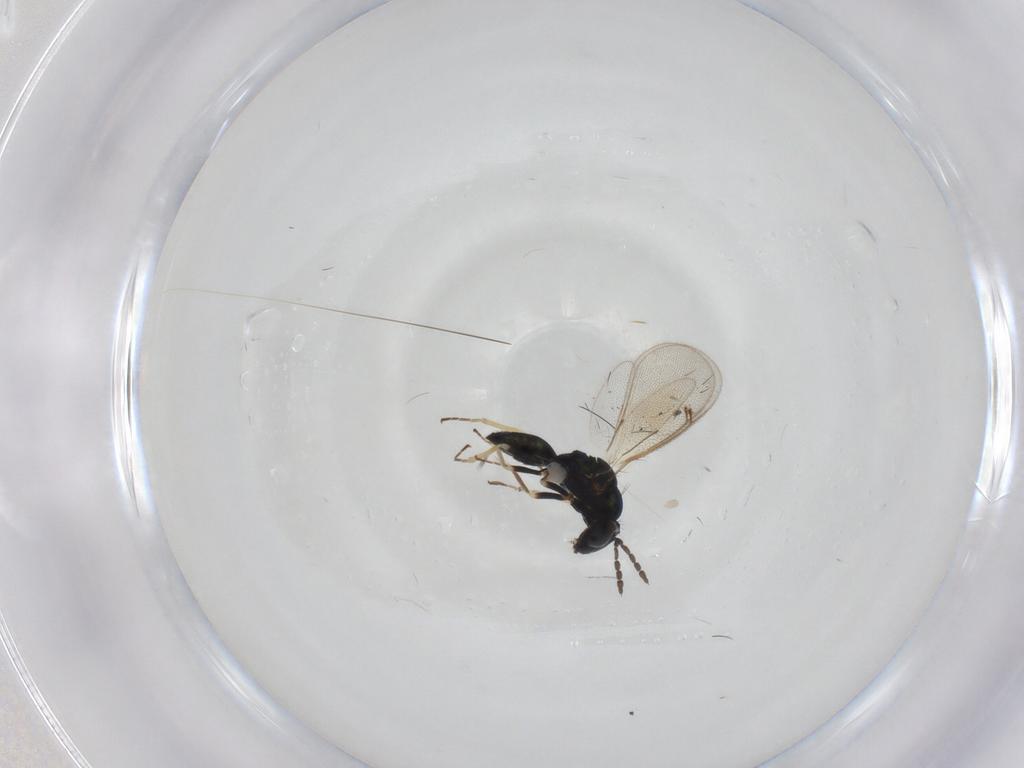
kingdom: Animalia
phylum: Arthropoda
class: Insecta
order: Hymenoptera
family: Eulophidae
